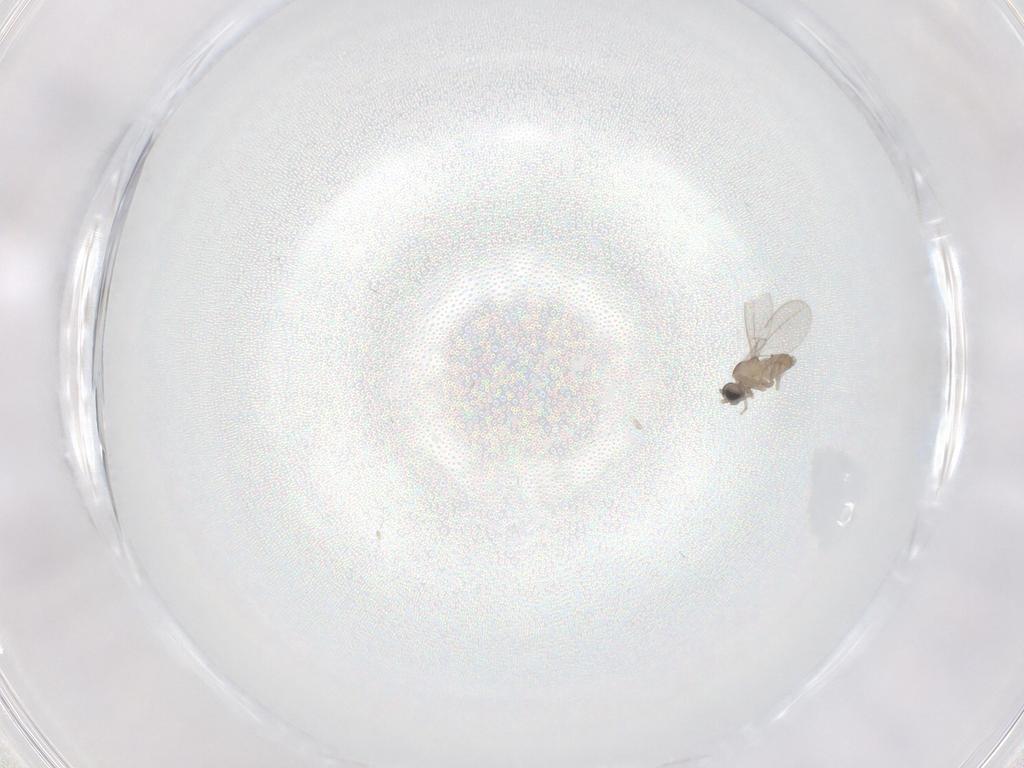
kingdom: Animalia
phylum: Arthropoda
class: Insecta
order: Diptera
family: Cecidomyiidae
